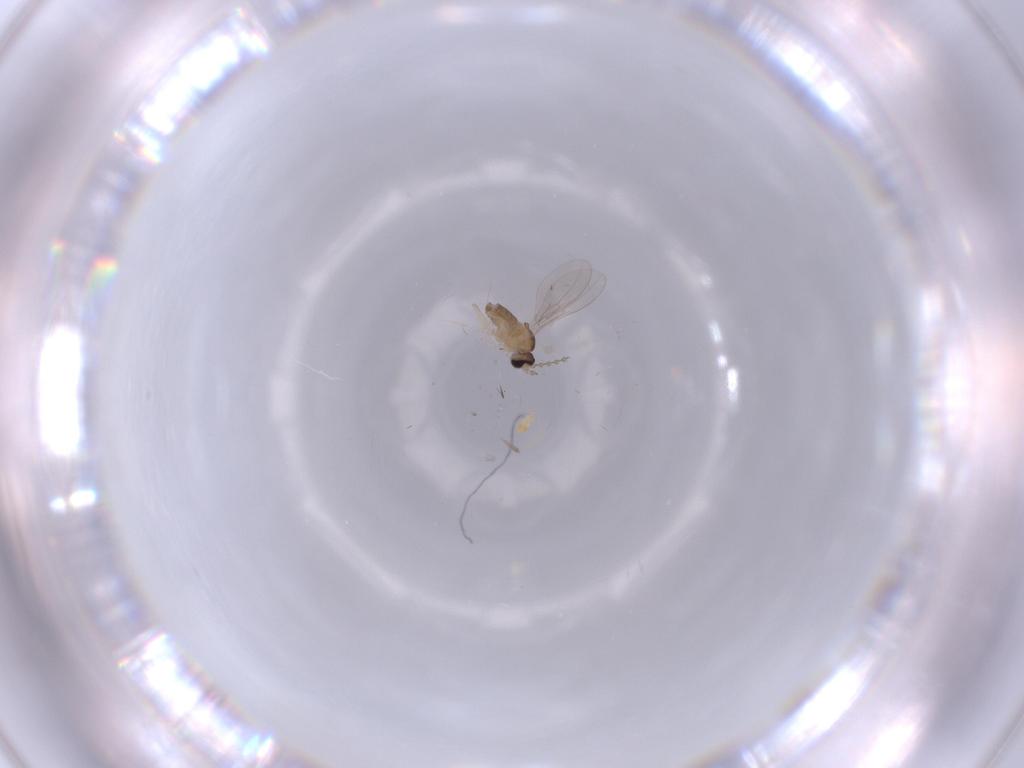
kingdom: Animalia
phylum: Arthropoda
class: Insecta
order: Diptera
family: Cecidomyiidae
